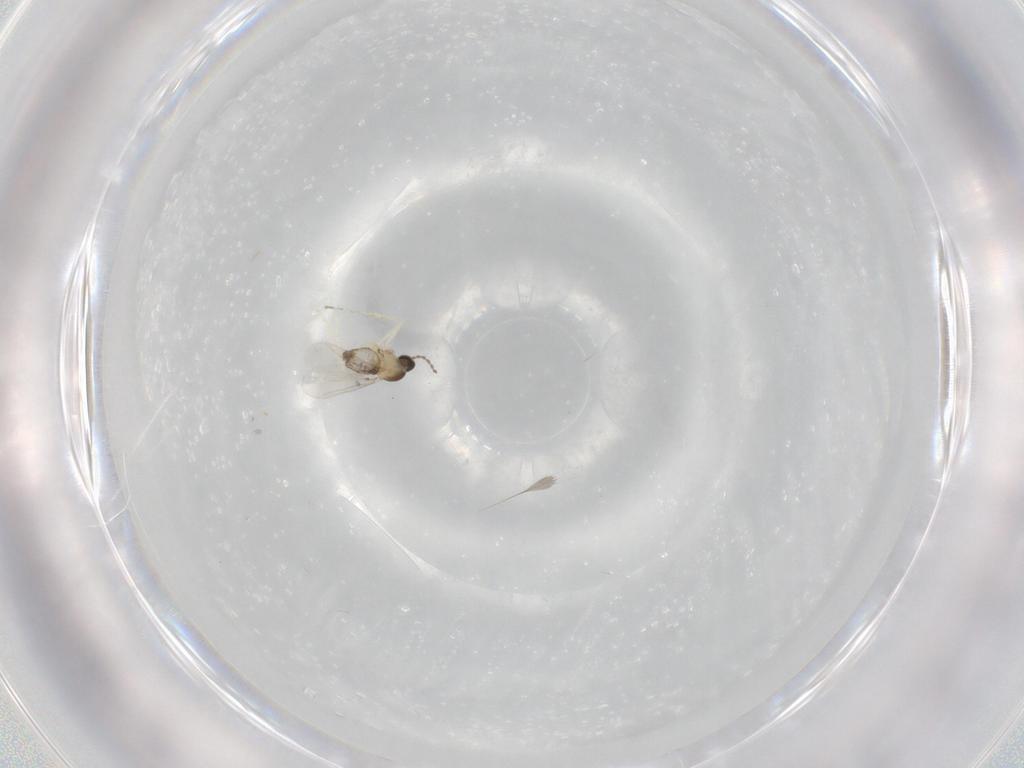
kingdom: Animalia
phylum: Arthropoda
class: Insecta
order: Diptera
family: Cecidomyiidae
